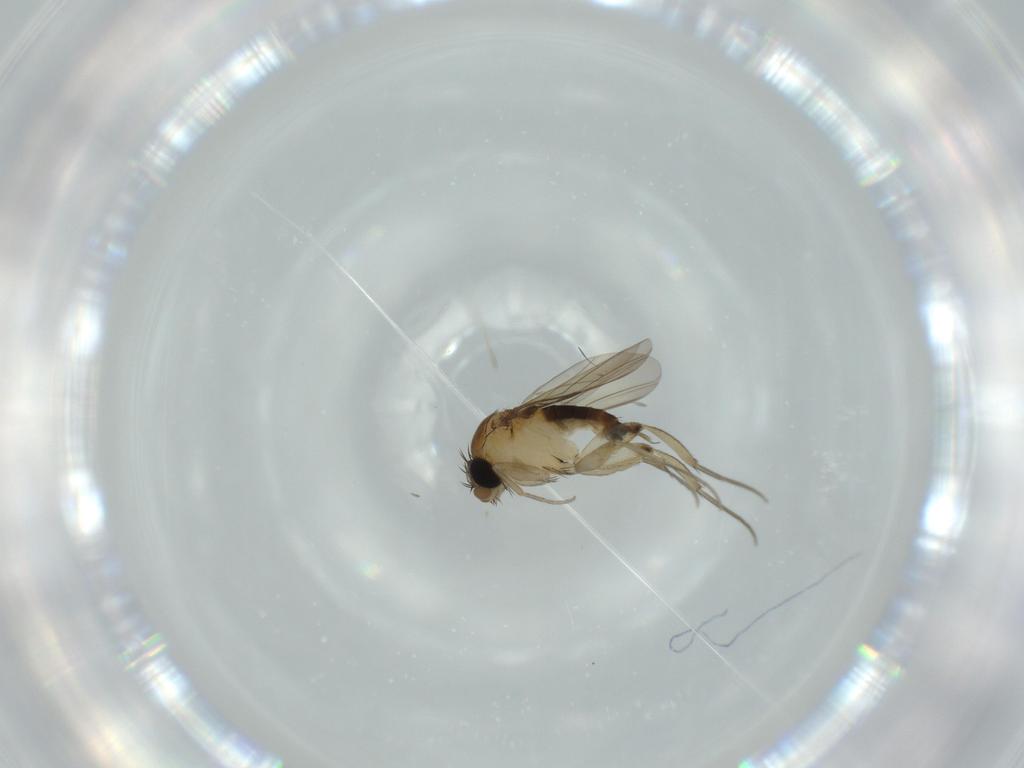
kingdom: Animalia
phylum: Arthropoda
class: Insecta
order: Diptera
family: Phoridae
